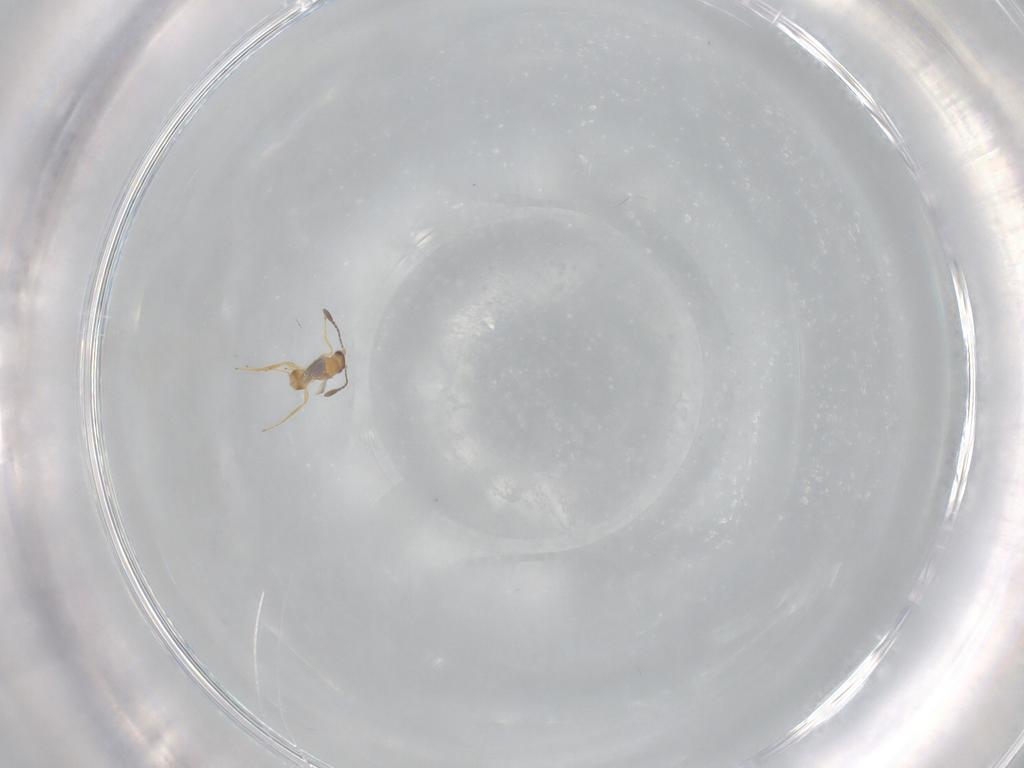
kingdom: Animalia
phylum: Arthropoda
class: Insecta
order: Hymenoptera
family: Mymaridae
